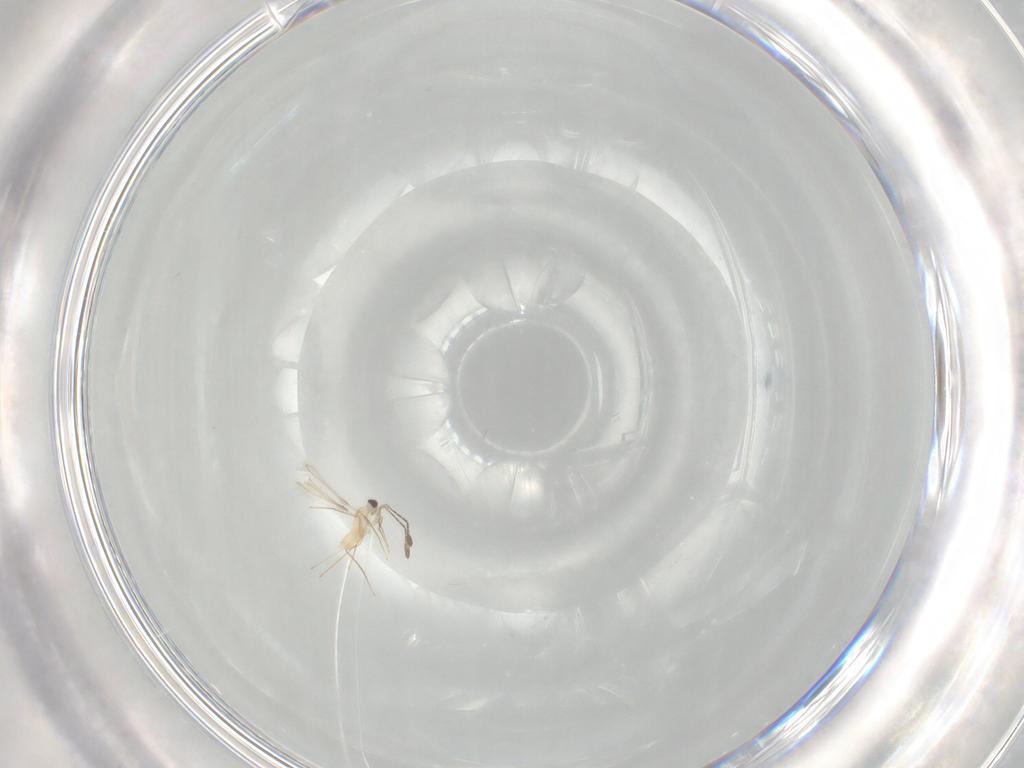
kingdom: Animalia
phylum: Arthropoda
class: Insecta
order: Hymenoptera
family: Mymaridae
